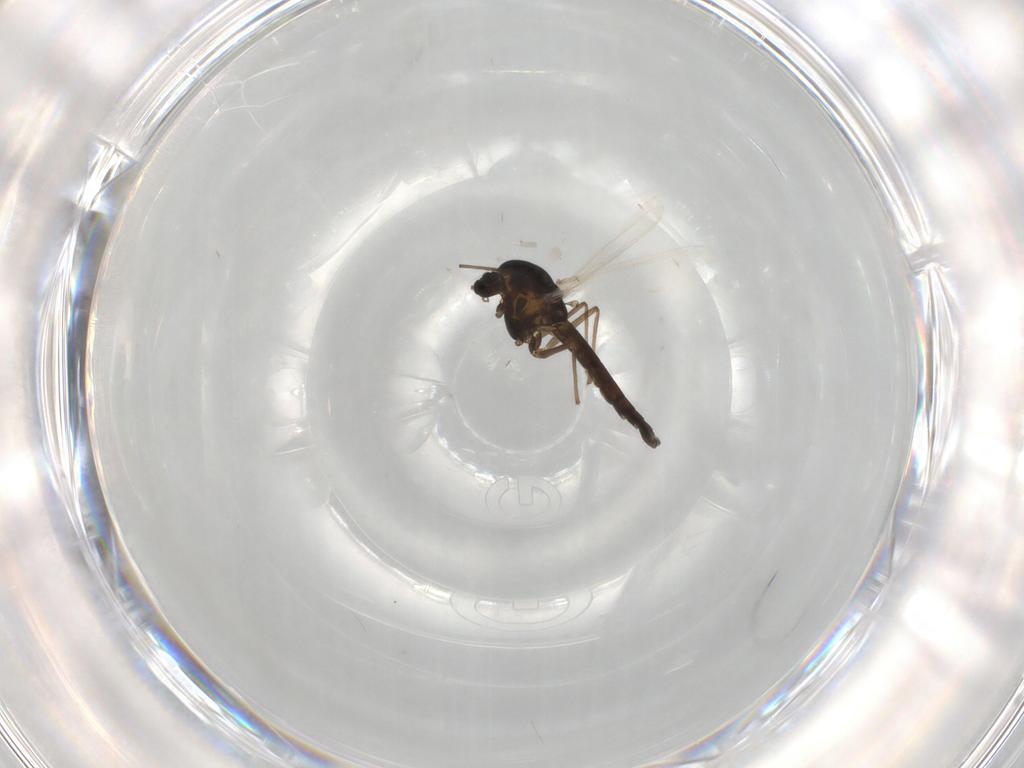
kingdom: Animalia
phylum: Arthropoda
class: Insecta
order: Diptera
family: Chironomidae
